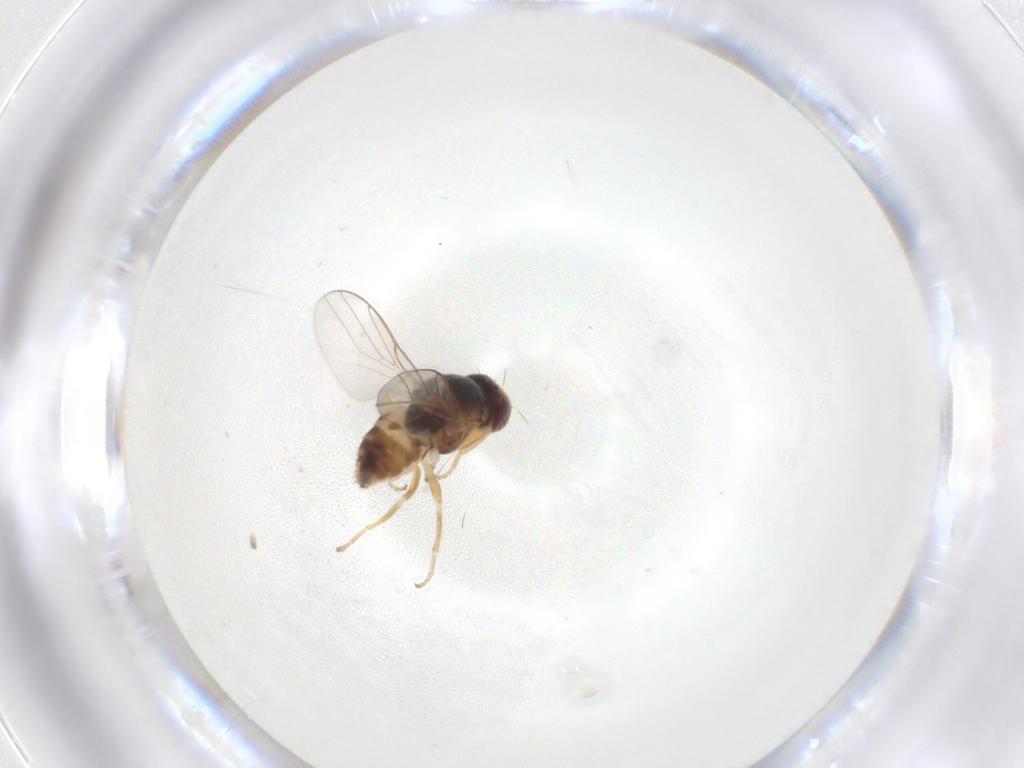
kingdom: Animalia
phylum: Arthropoda
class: Insecta
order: Diptera
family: Chloropidae
